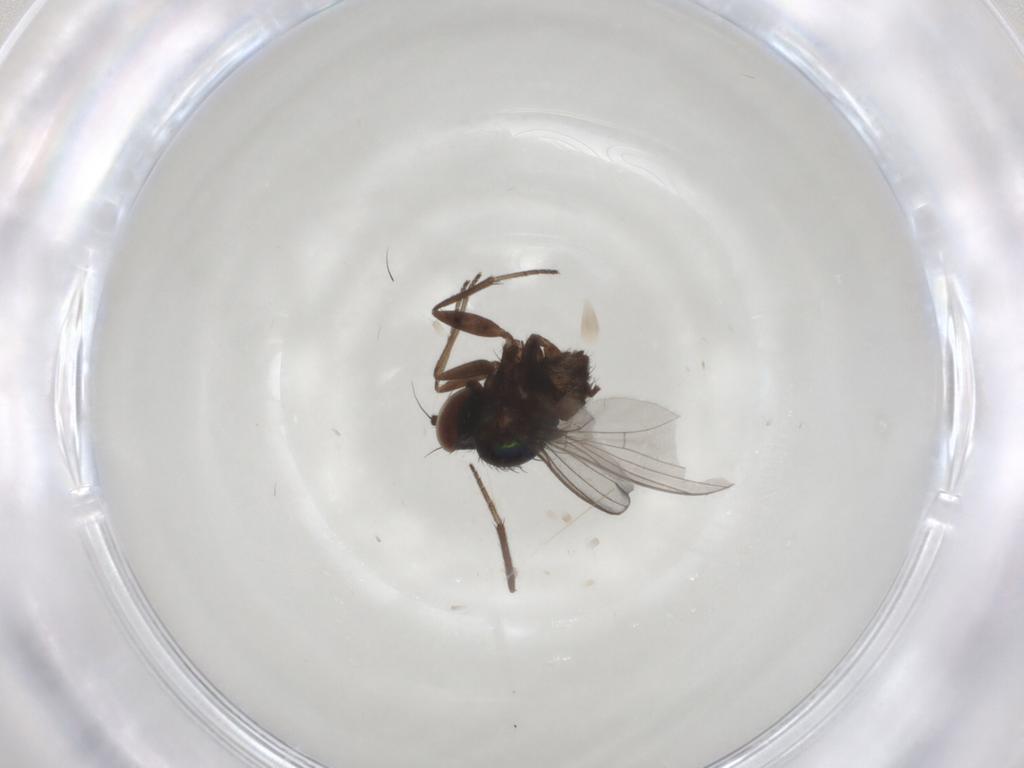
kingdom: Animalia
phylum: Arthropoda
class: Insecta
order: Diptera
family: Dolichopodidae
